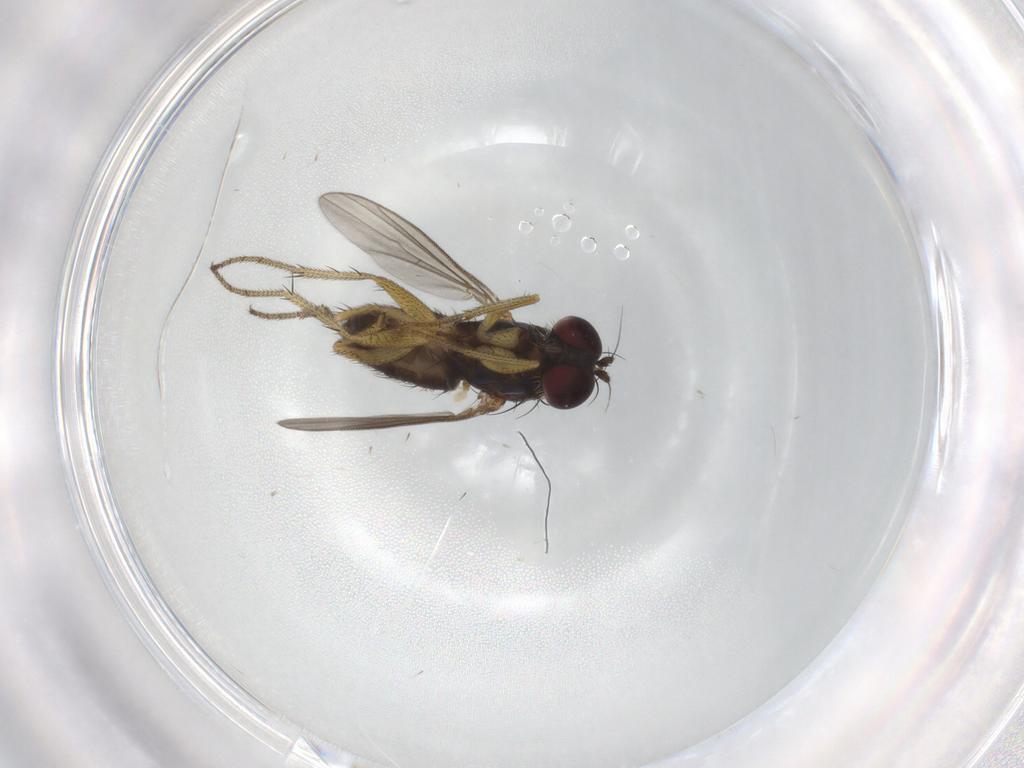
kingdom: Animalia
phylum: Arthropoda
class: Insecta
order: Diptera
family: Dolichopodidae
